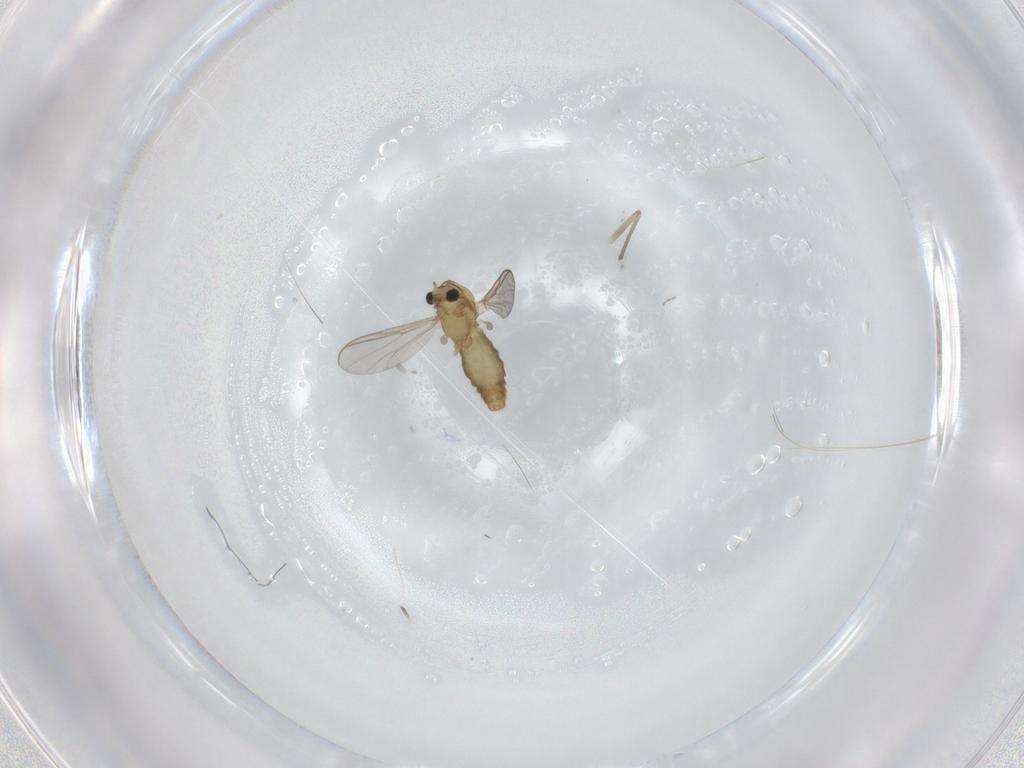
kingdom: Animalia
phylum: Arthropoda
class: Insecta
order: Diptera
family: Chironomidae
